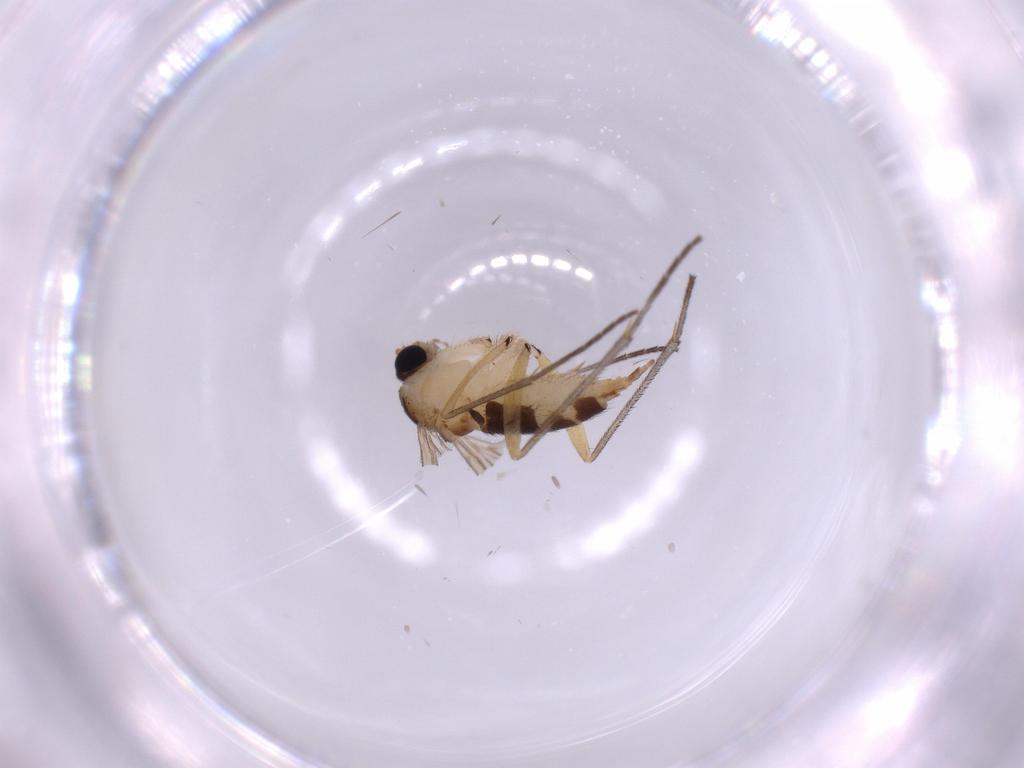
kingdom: Animalia
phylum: Arthropoda
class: Insecta
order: Diptera
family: Sciaridae
